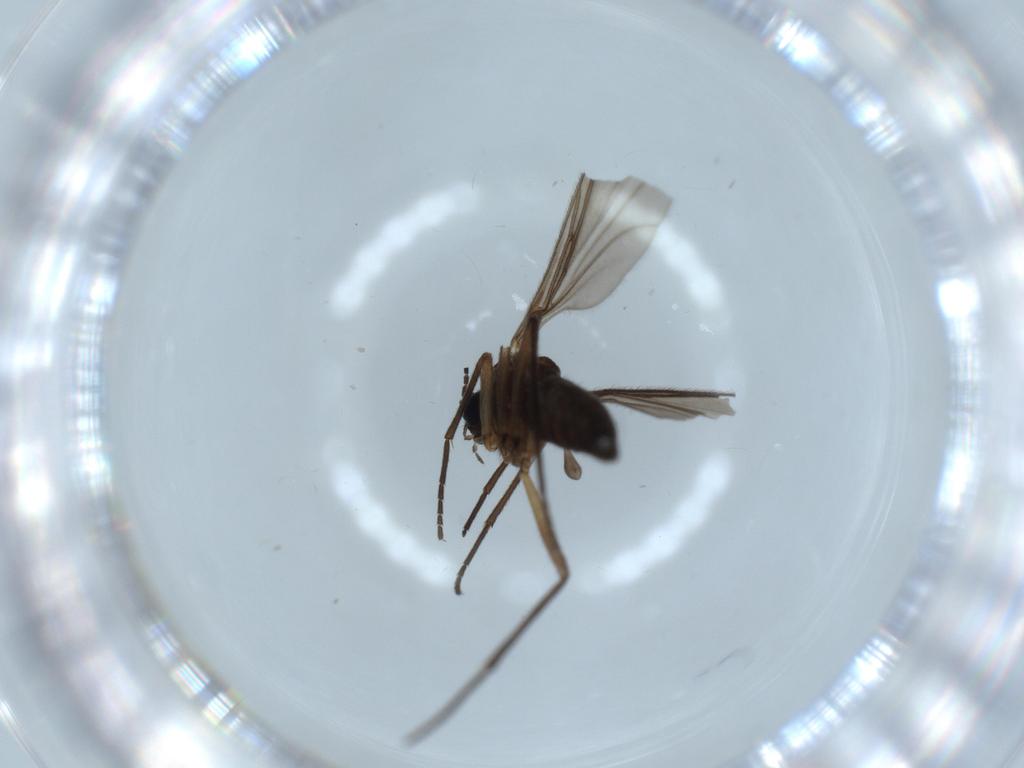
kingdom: Animalia
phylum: Arthropoda
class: Insecta
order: Diptera
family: Sciaridae
